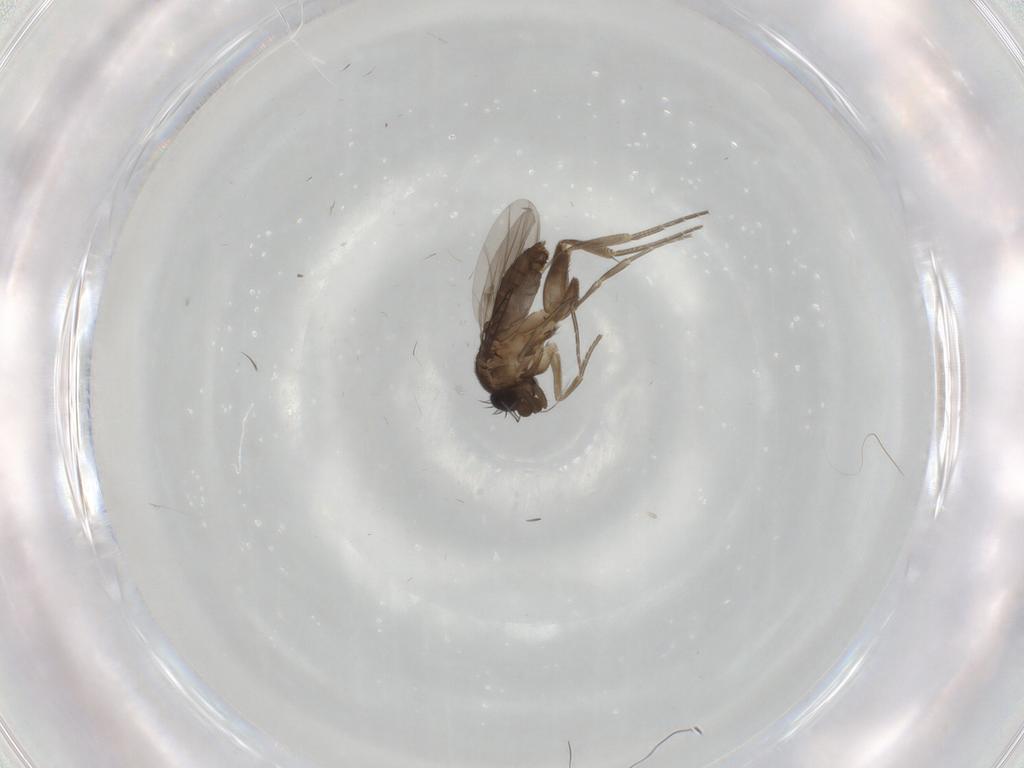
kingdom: Animalia
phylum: Arthropoda
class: Insecta
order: Diptera
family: Phoridae
